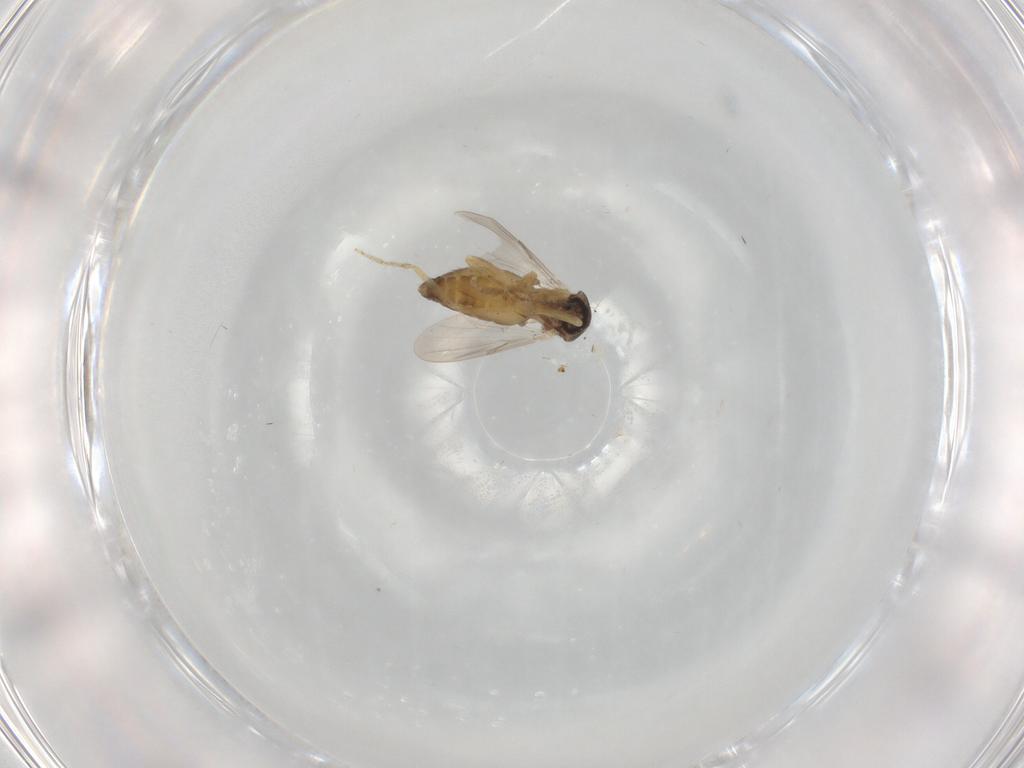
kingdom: Animalia
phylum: Arthropoda
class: Insecta
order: Diptera
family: Ceratopogonidae
